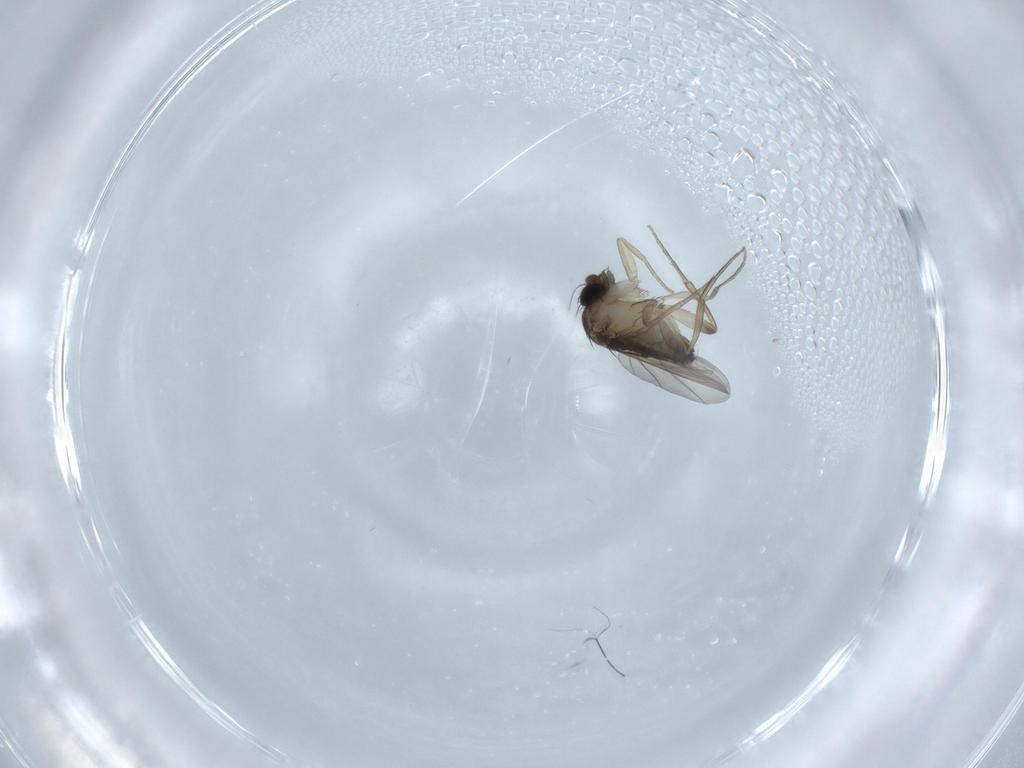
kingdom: Animalia
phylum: Arthropoda
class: Insecta
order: Diptera
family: Phoridae
